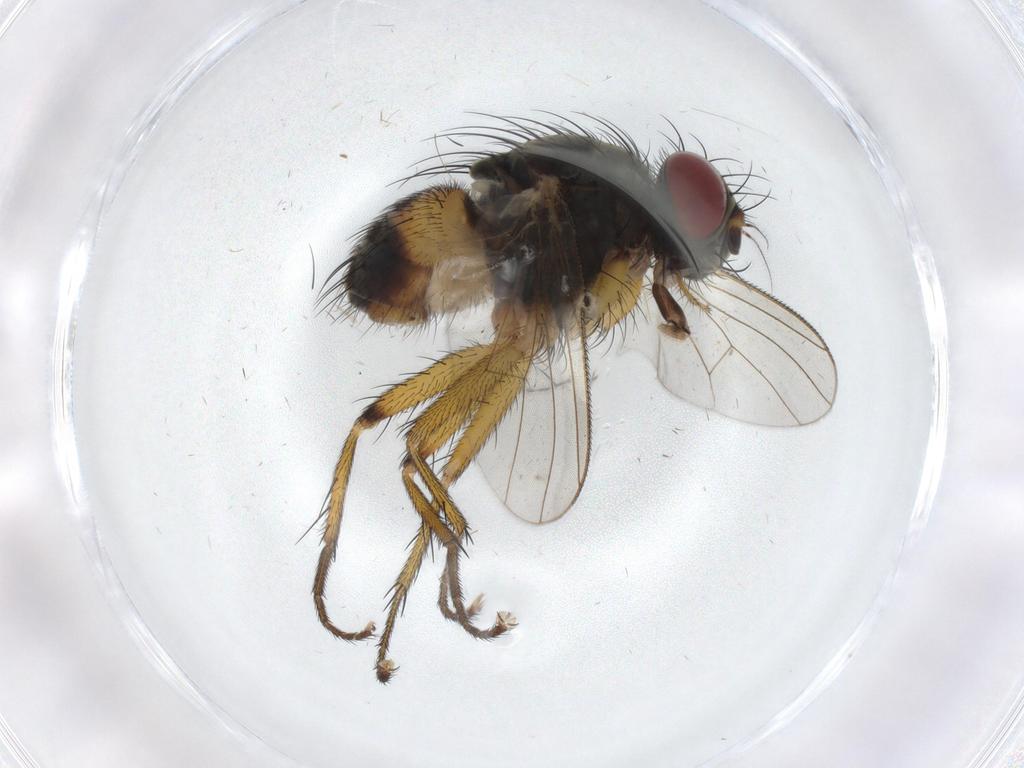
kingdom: Animalia
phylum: Arthropoda
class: Insecta
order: Diptera
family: Muscidae
